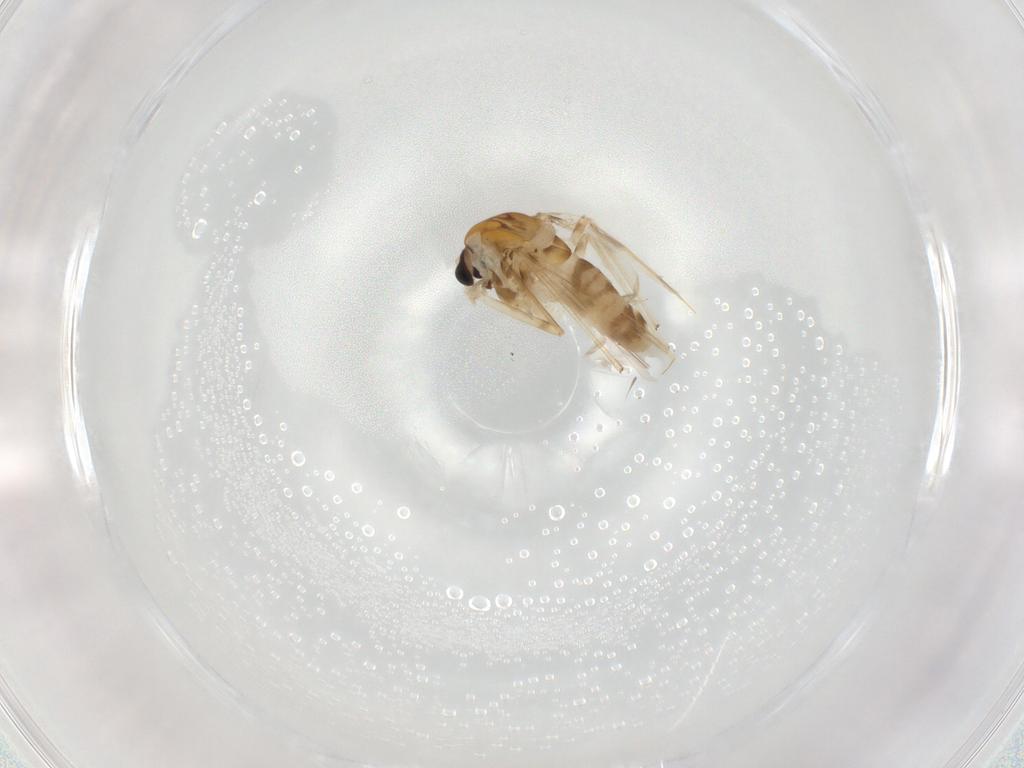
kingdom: Animalia
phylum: Arthropoda
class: Insecta
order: Diptera
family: Chironomidae
